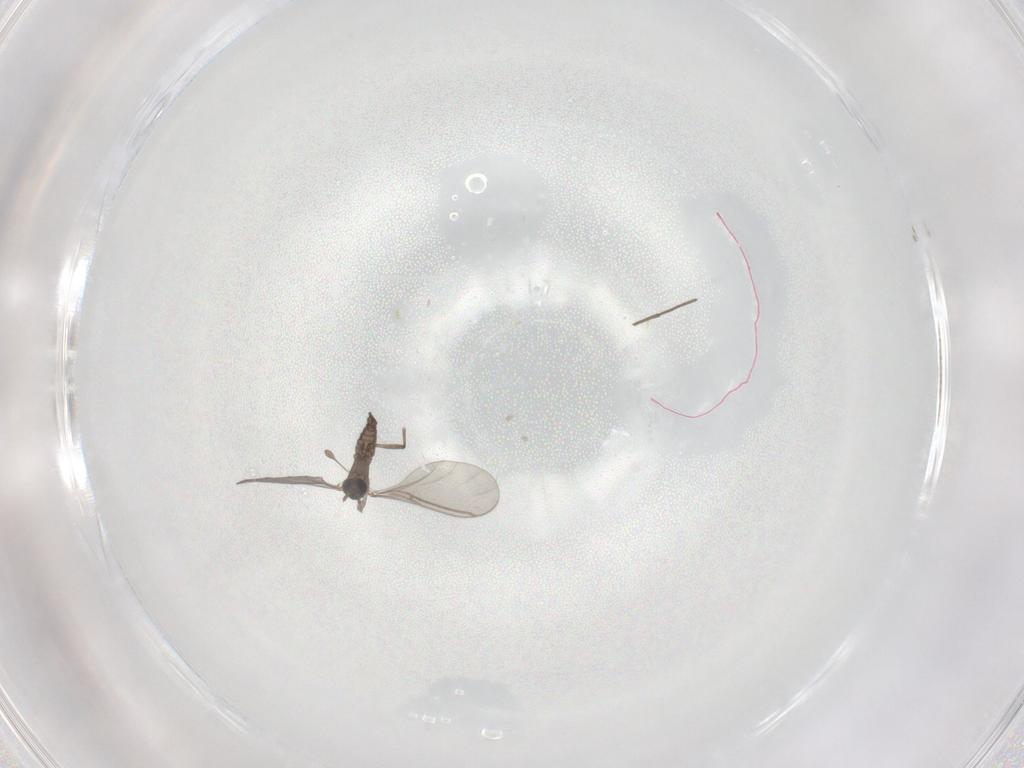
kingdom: Animalia
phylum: Arthropoda
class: Insecta
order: Diptera
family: Sciaridae
